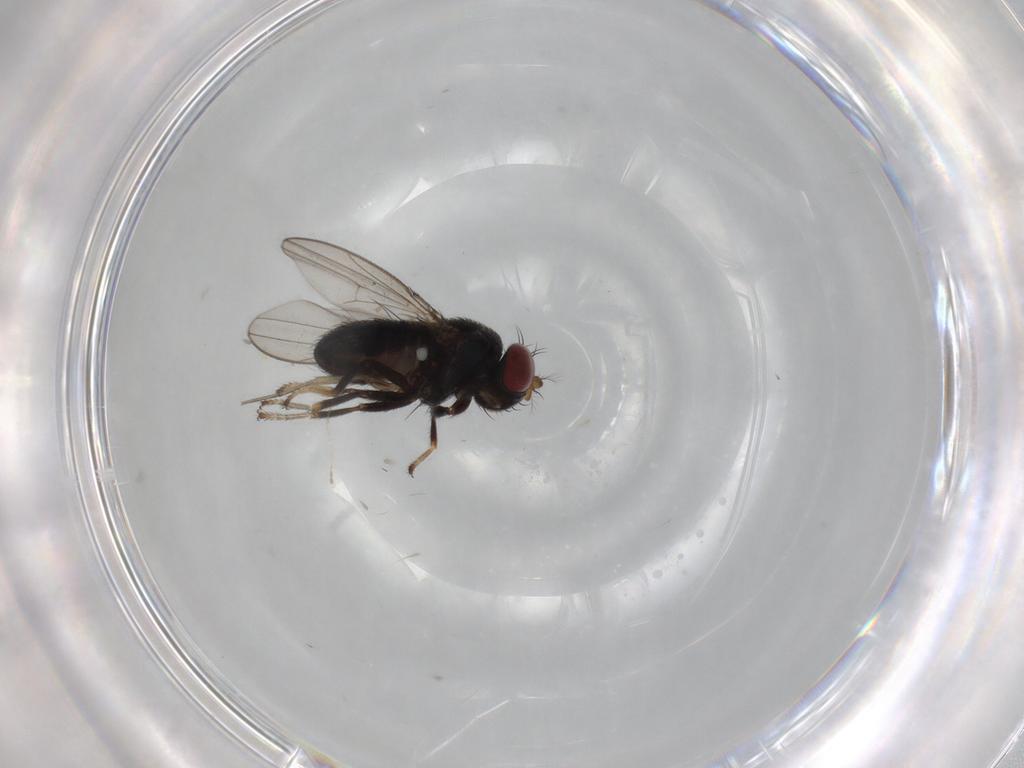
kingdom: Animalia
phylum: Arthropoda
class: Insecta
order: Diptera
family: Ephydridae
